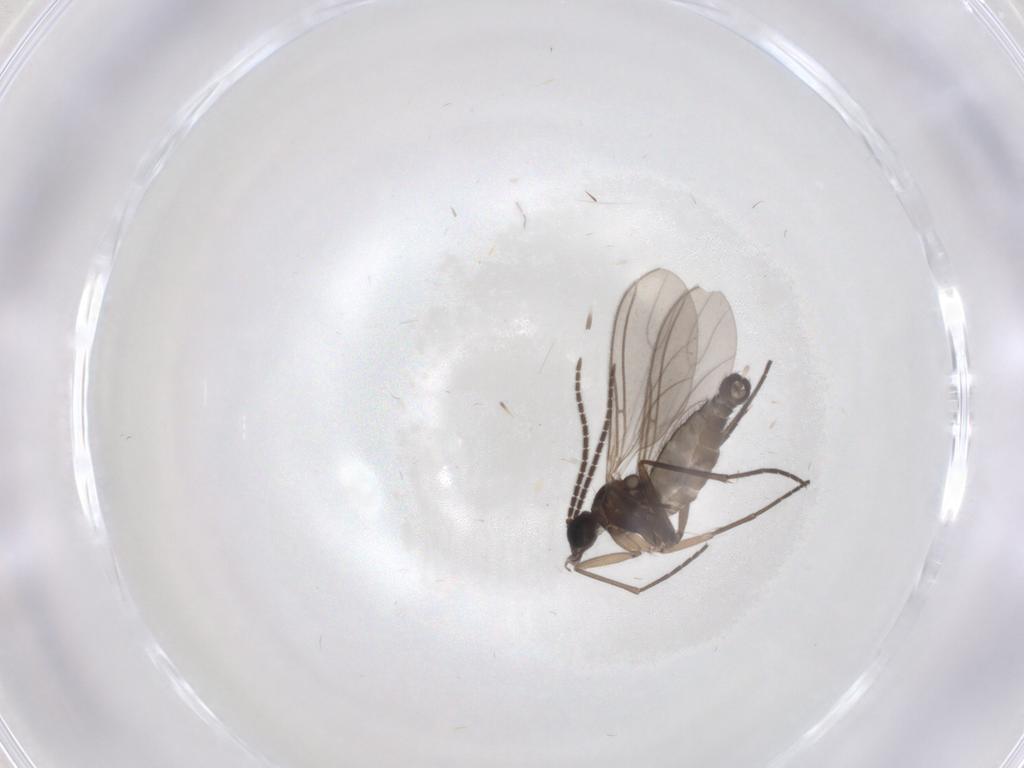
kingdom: Animalia
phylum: Arthropoda
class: Insecta
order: Diptera
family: Sciaridae
